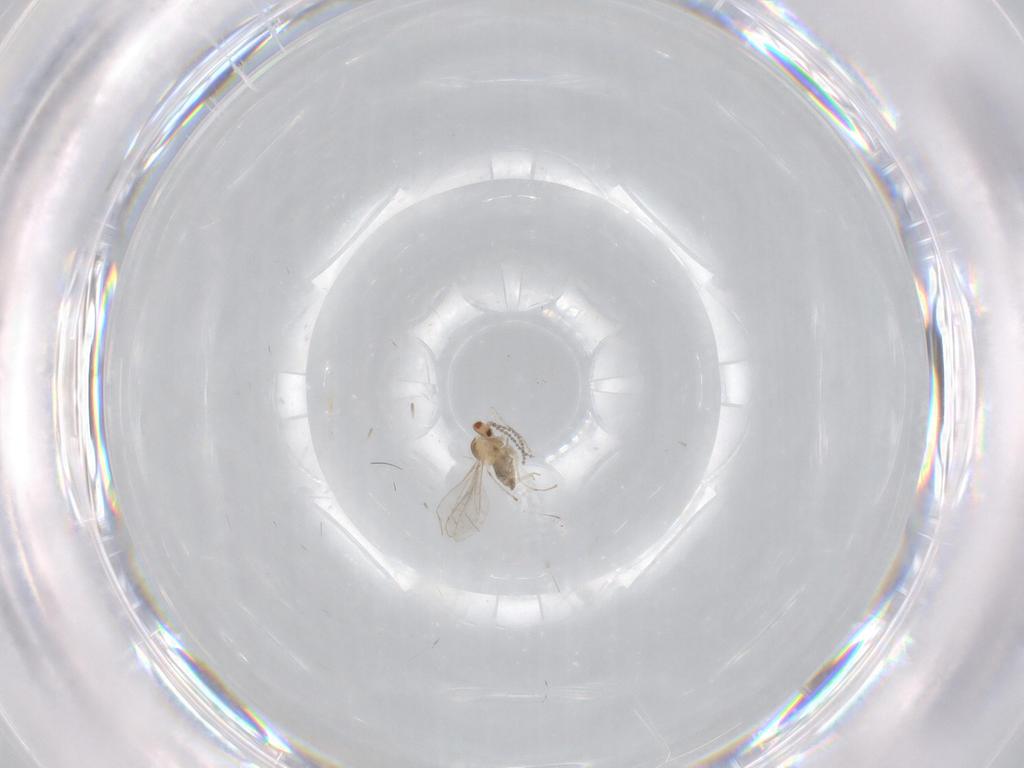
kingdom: Animalia
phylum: Arthropoda
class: Insecta
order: Diptera
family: Cecidomyiidae
